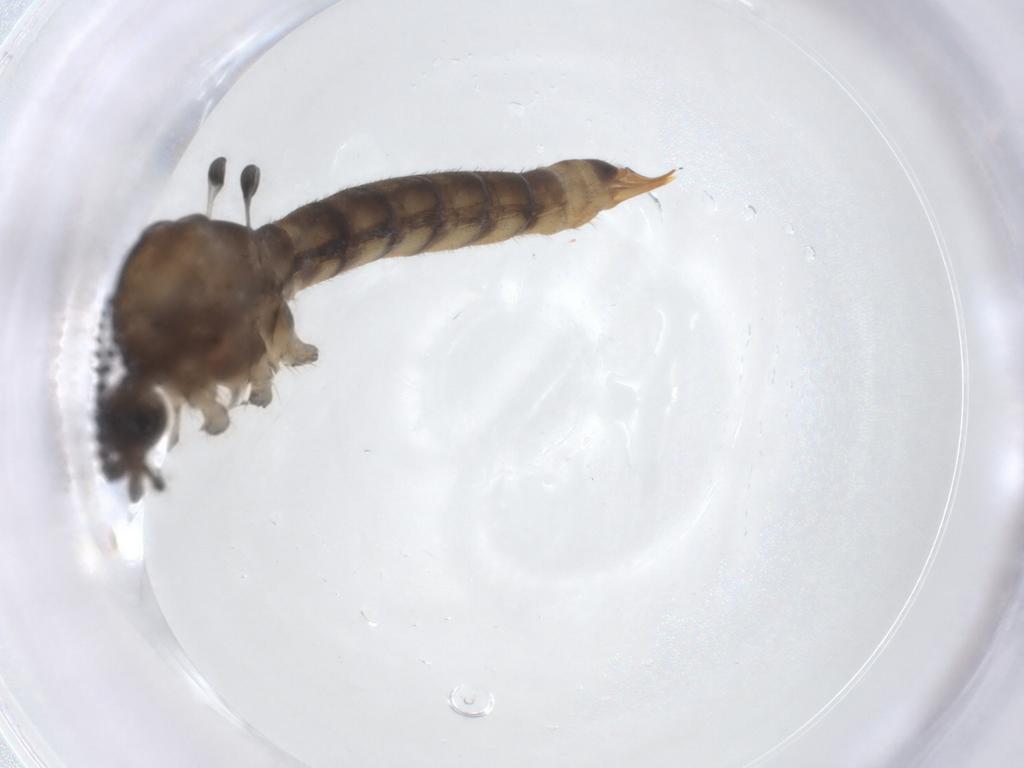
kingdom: Animalia
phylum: Arthropoda
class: Insecta
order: Diptera
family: Limoniidae
